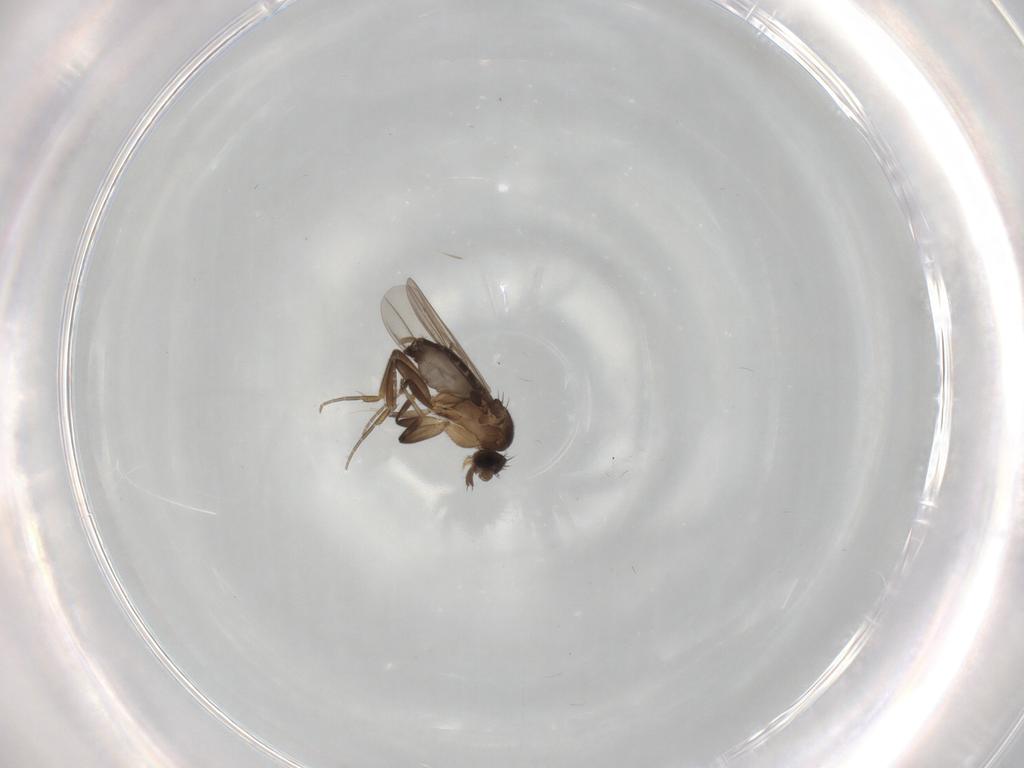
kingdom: Animalia
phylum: Arthropoda
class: Insecta
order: Diptera
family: Phoridae
